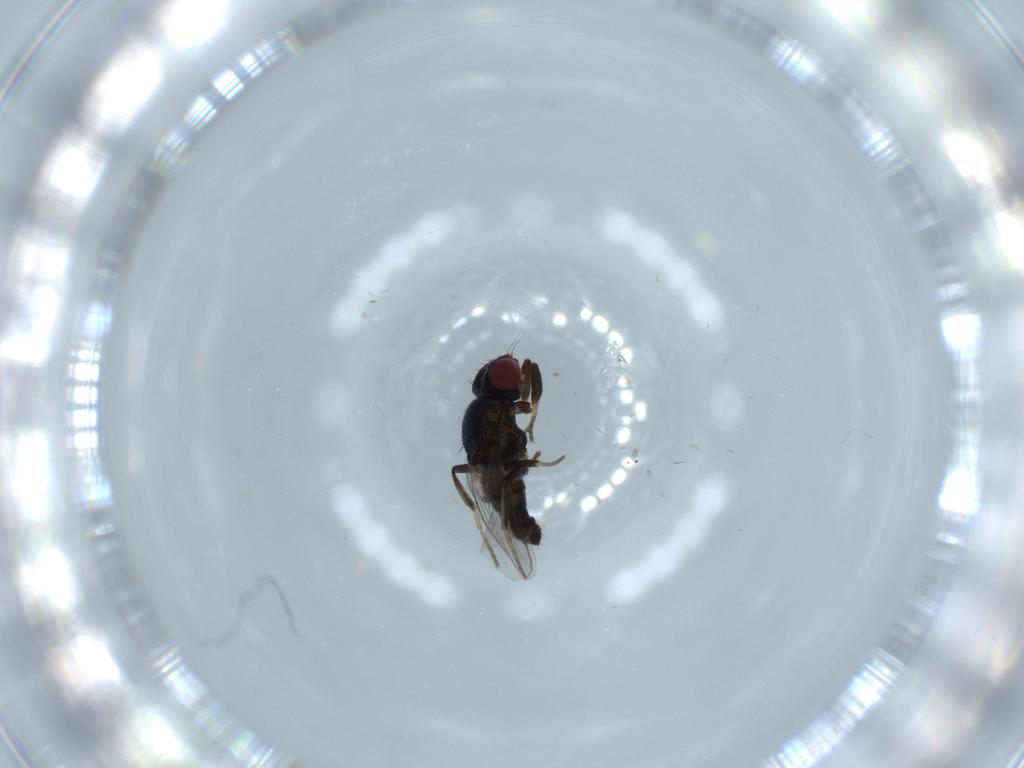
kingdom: Animalia
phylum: Arthropoda
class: Insecta
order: Diptera
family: Chloropidae
